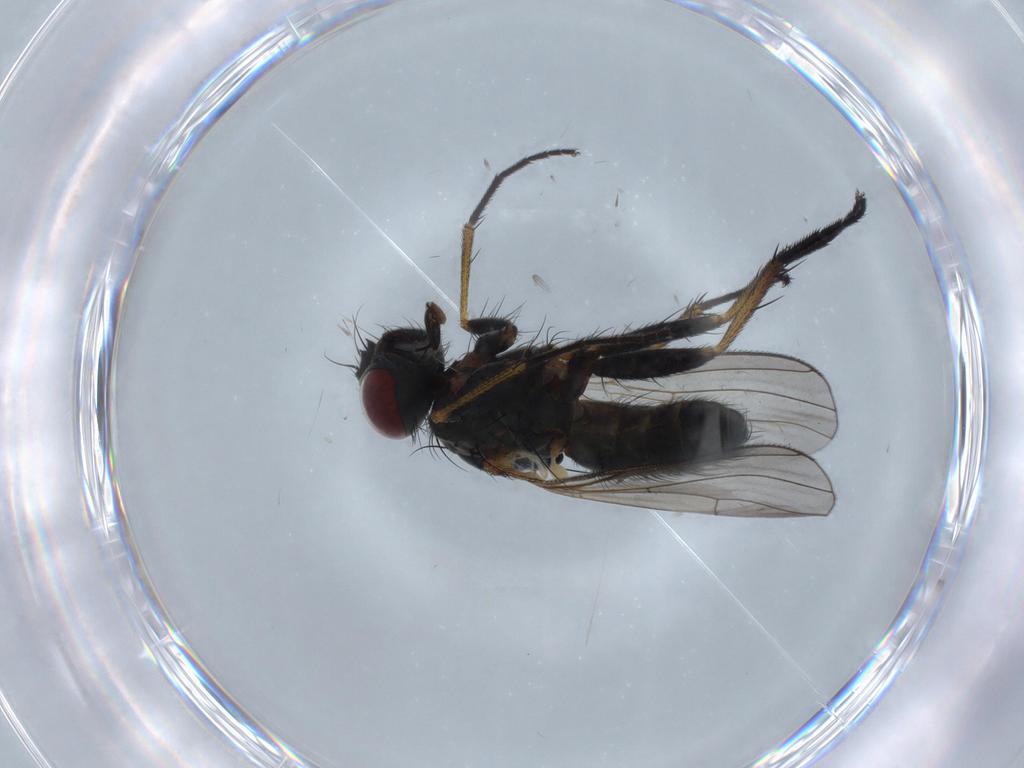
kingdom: Animalia
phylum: Arthropoda
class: Insecta
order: Diptera
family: Muscidae
